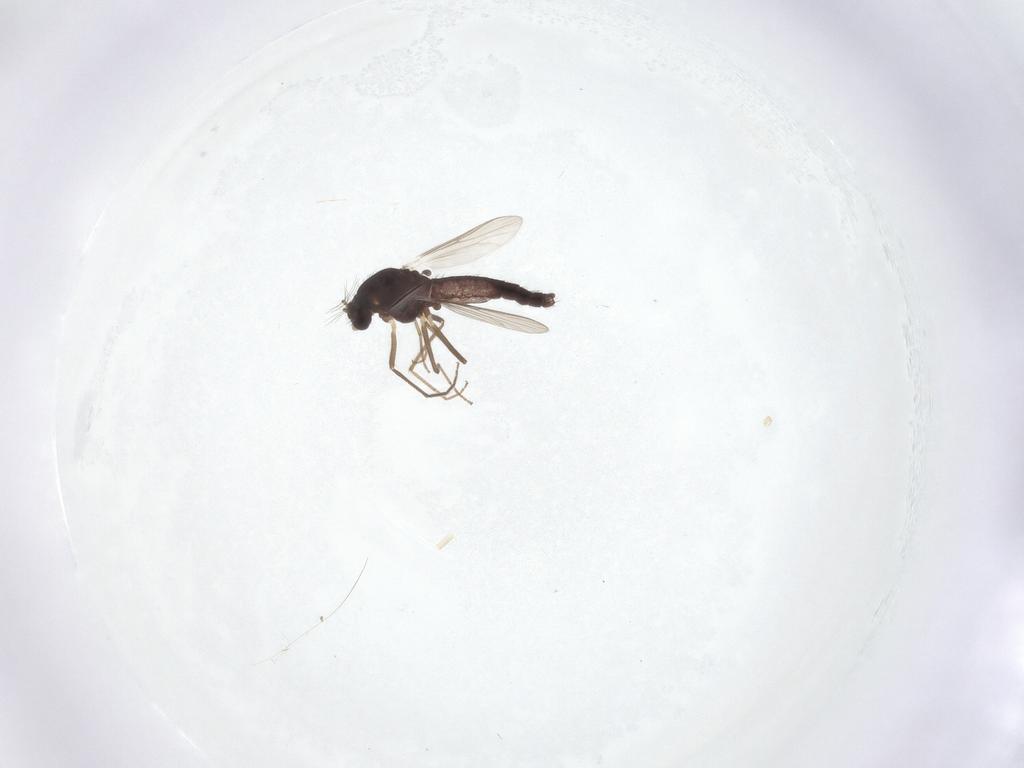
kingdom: Animalia
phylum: Arthropoda
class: Insecta
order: Diptera
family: Chironomidae
